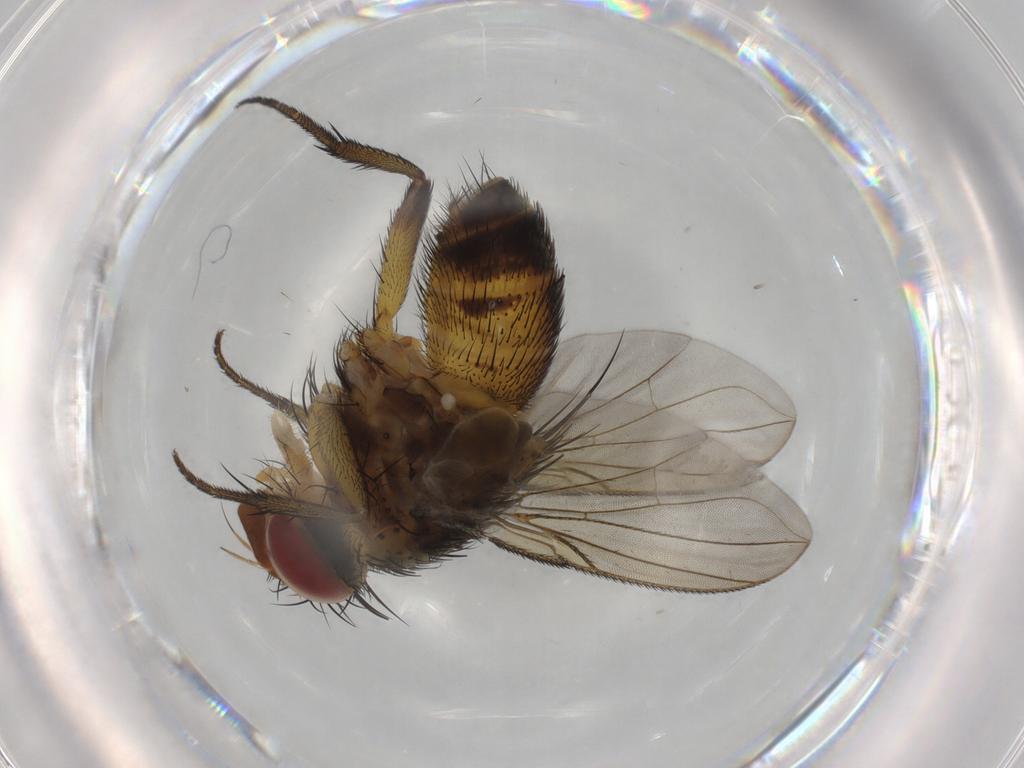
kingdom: Animalia
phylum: Arthropoda
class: Insecta
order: Diptera
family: Tachinidae
